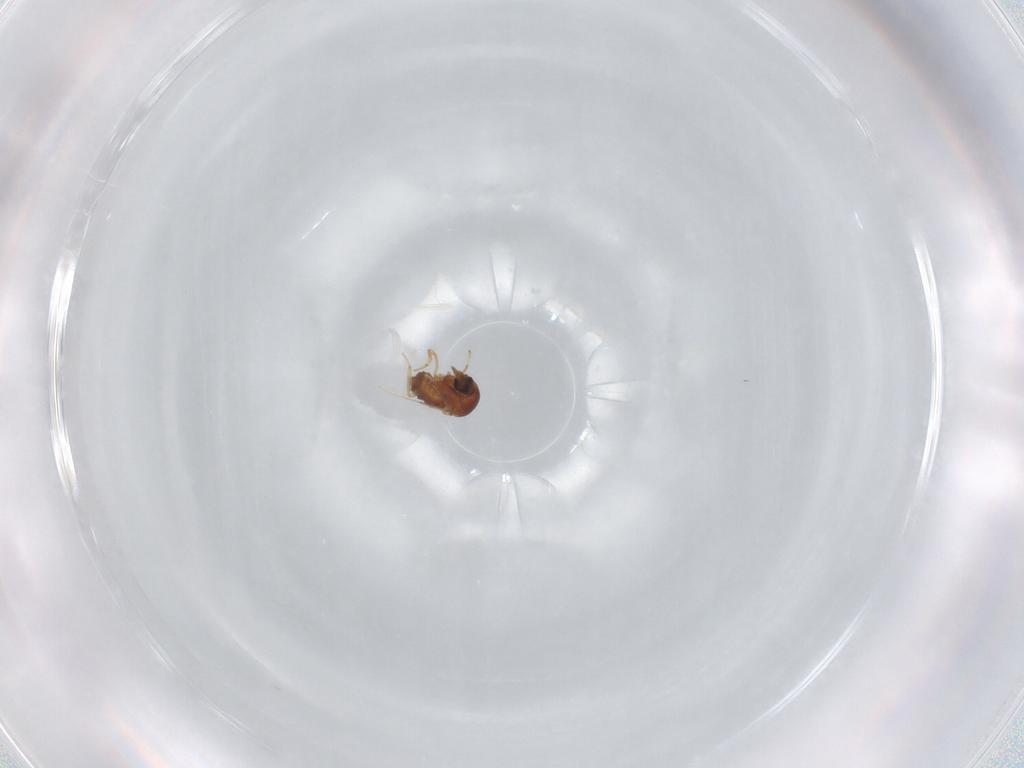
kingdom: Animalia
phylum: Arthropoda
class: Insecta
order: Diptera
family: Ceratopogonidae
